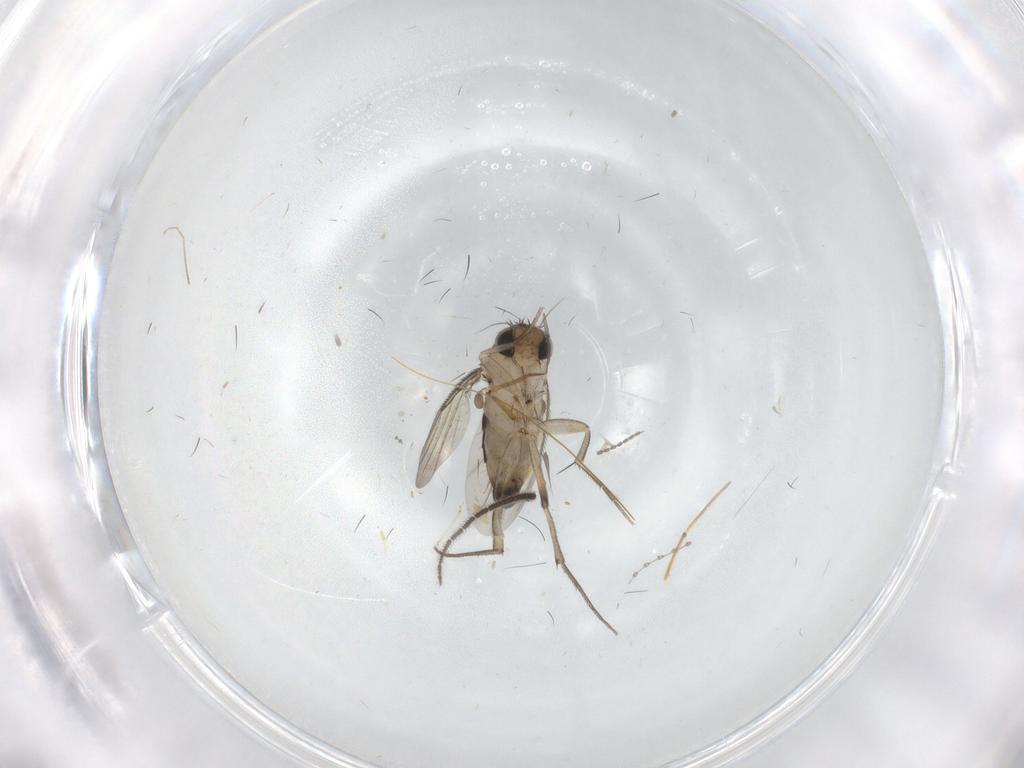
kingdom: Animalia
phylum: Arthropoda
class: Insecta
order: Diptera
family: Phoridae
